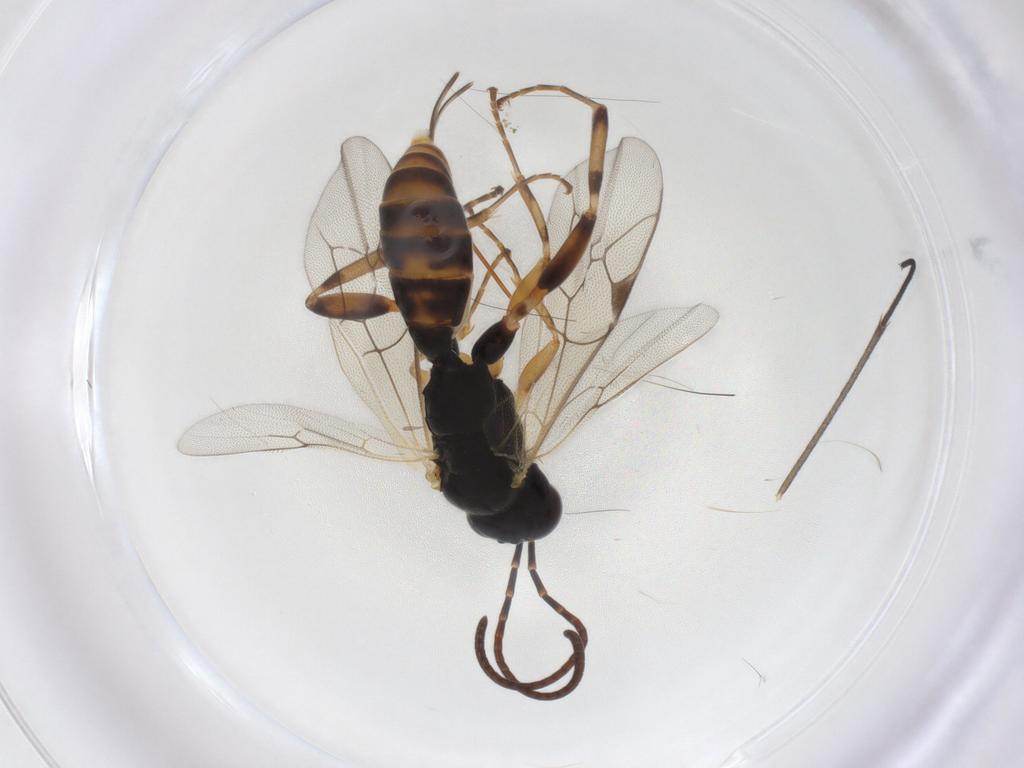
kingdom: Animalia
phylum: Arthropoda
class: Insecta
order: Hymenoptera
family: Ichneumonidae
